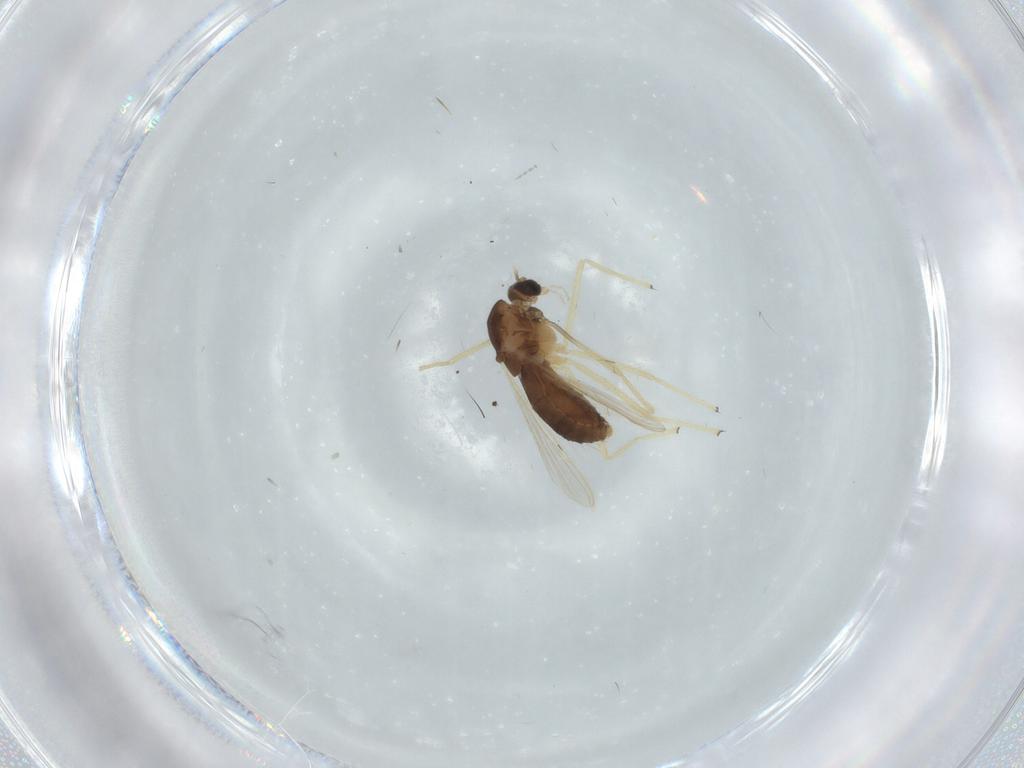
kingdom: Animalia
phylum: Arthropoda
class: Insecta
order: Diptera
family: Chironomidae
